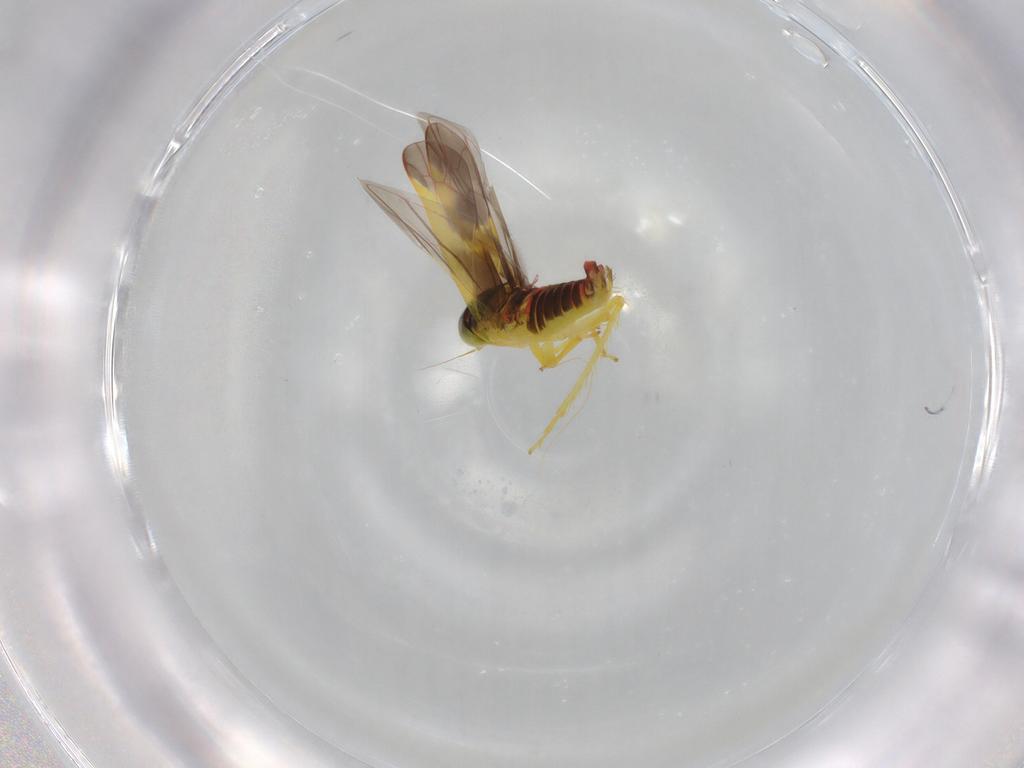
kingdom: Animalia
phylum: Arthropoda
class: Insecta
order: Hemiptera
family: Cicadellidae
